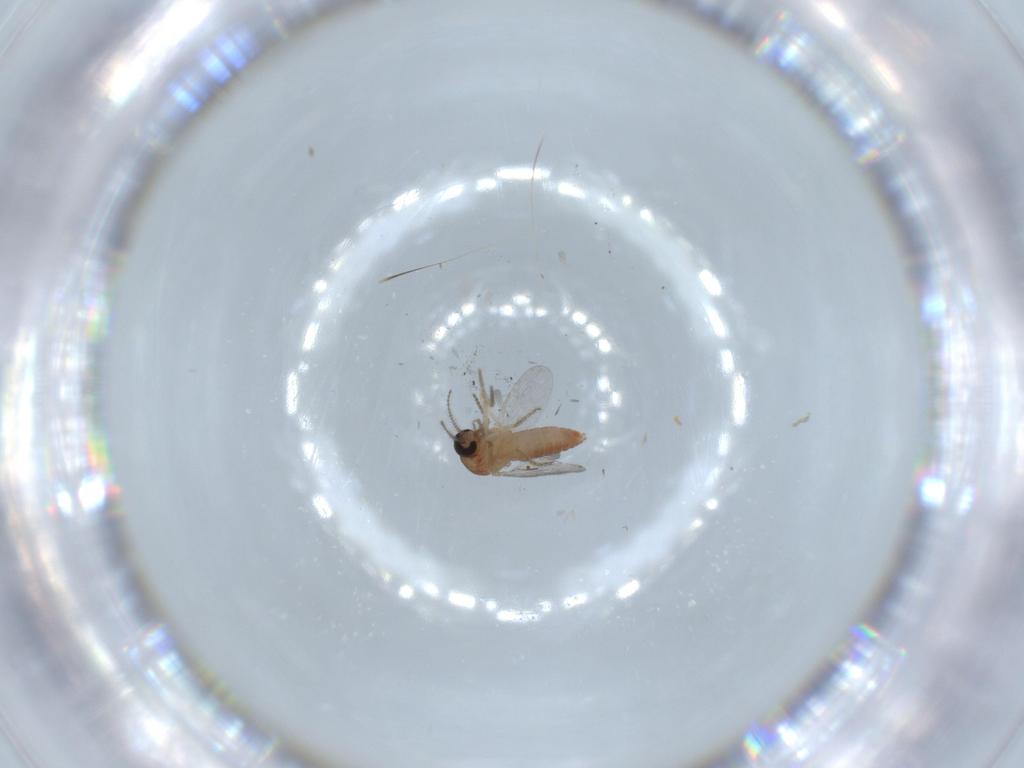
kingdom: Animalia
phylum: Arthropoda
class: Insecta
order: Diptera
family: Ceratopogonidae
